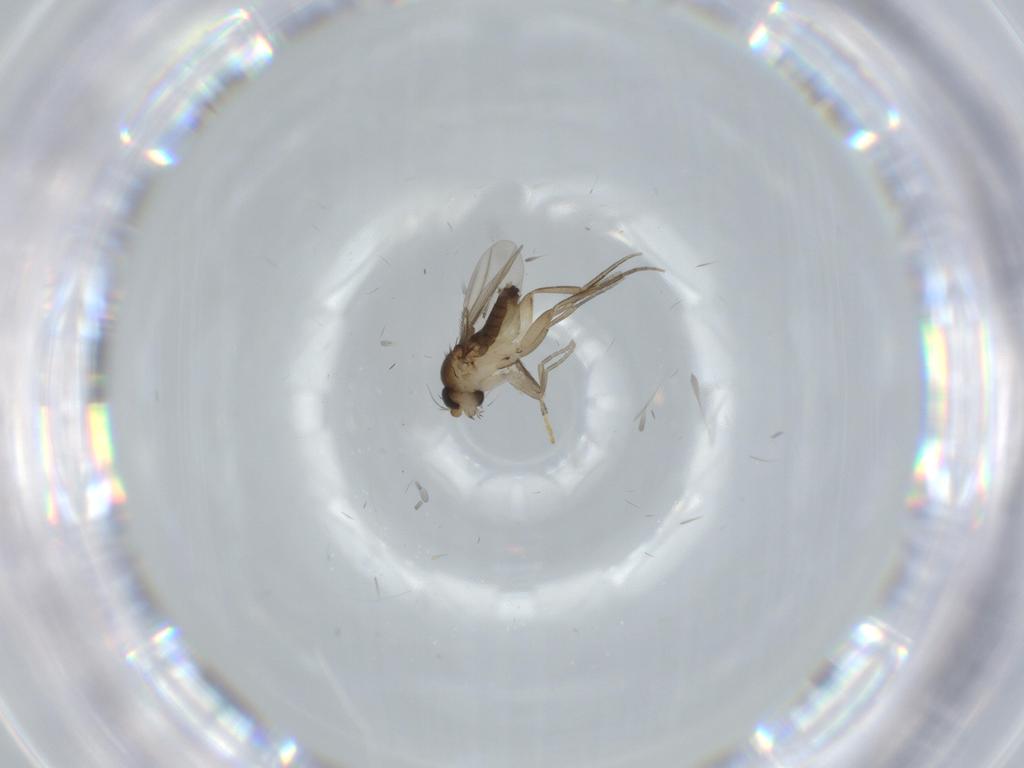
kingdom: Animalia
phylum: Arthropoda
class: Insecta
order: Diptera
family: Phoridae
